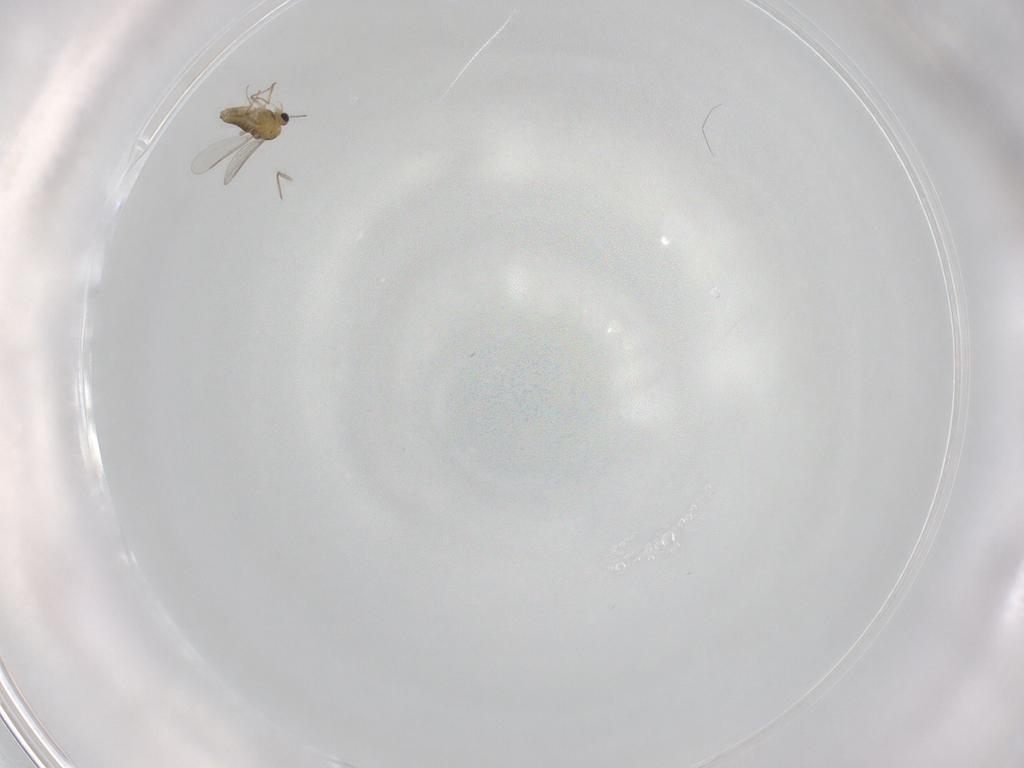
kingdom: Animalia
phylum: Arthropoda
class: Insecta
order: Diptera
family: Chironomidae
